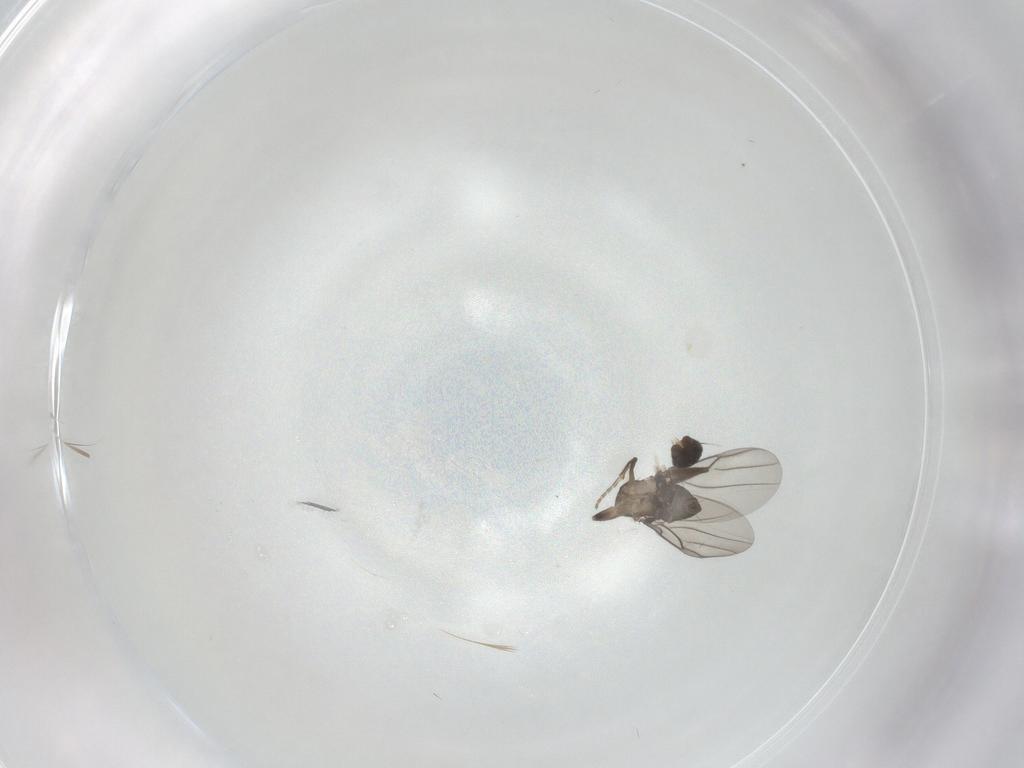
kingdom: Animalia
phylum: Arthropoda
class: Insecta
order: Diptera
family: Phoridae
